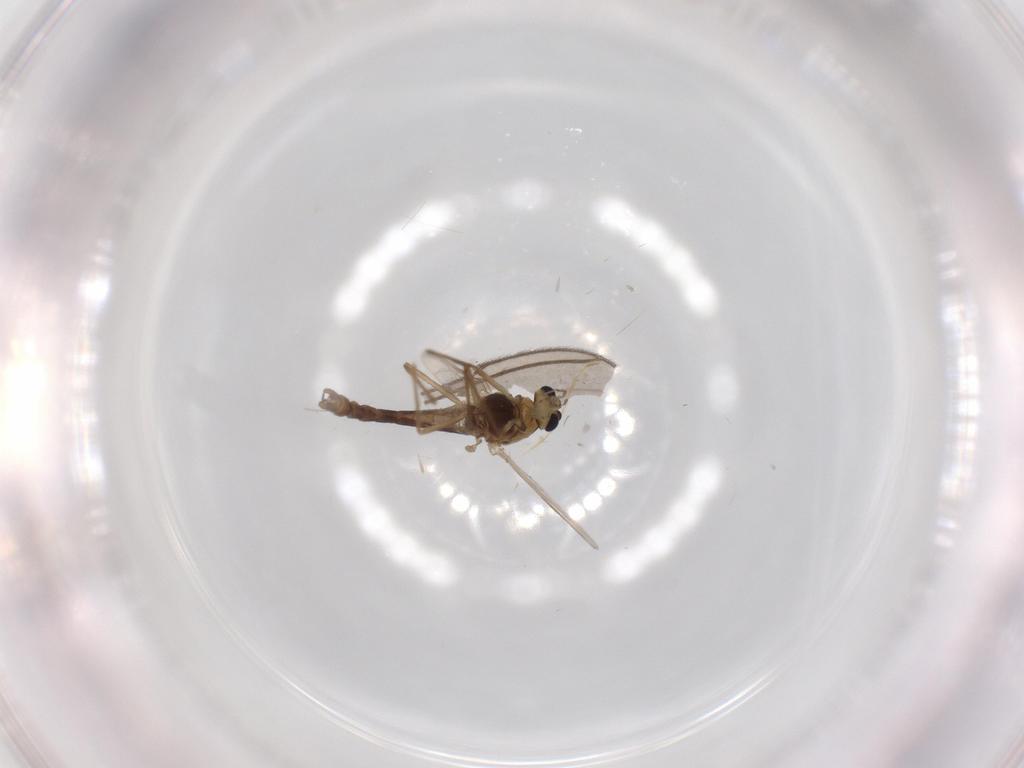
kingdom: Animalia
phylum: Arthropoda
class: Insecta
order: Diptera
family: Chironomidae
